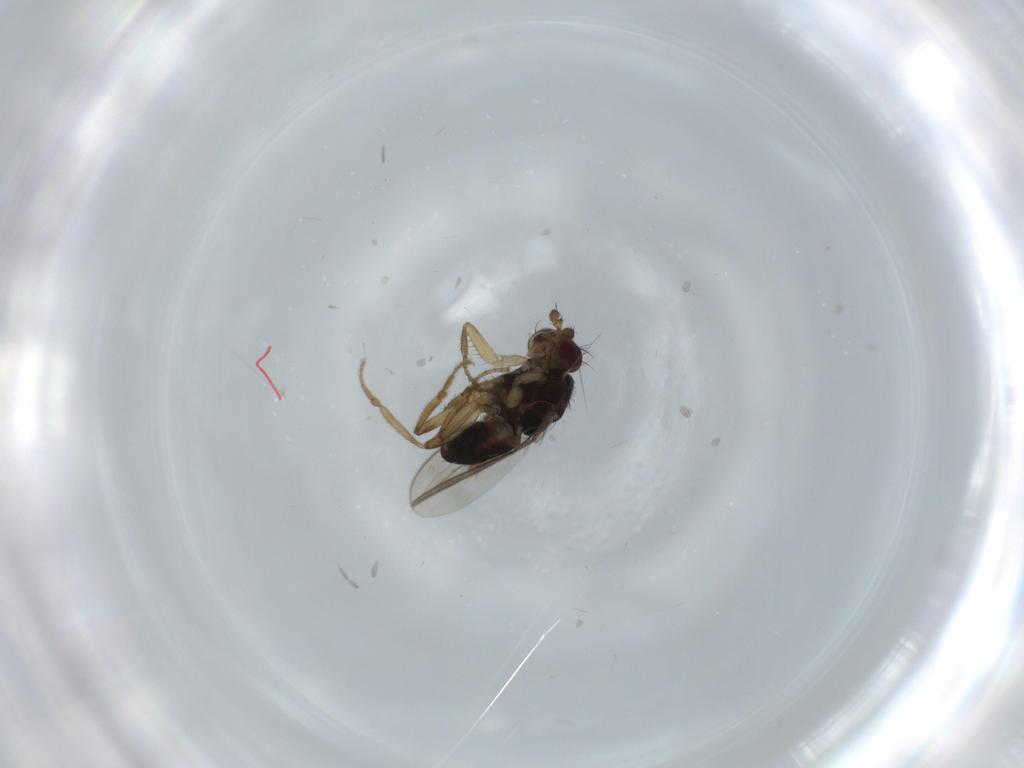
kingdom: Animalia
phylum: Arthropoda
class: Insecta
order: Diptera
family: Sphaeroceridae
